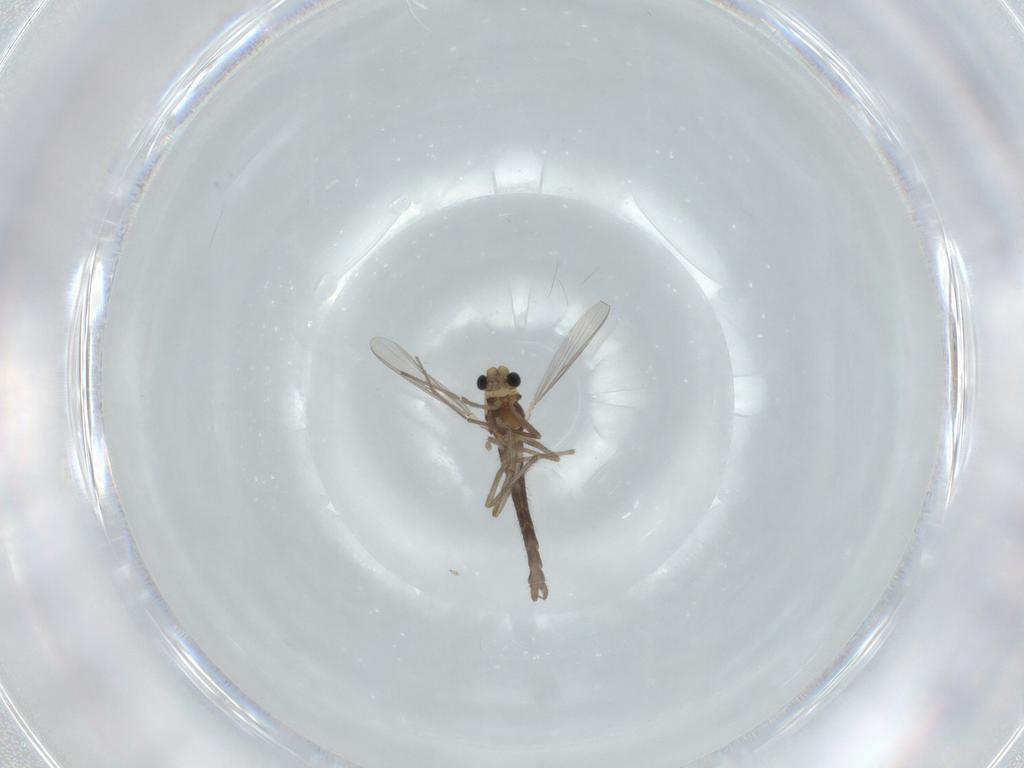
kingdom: Animalia
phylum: Arthropoda
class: Insecta
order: Diptera
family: Chironomidae
